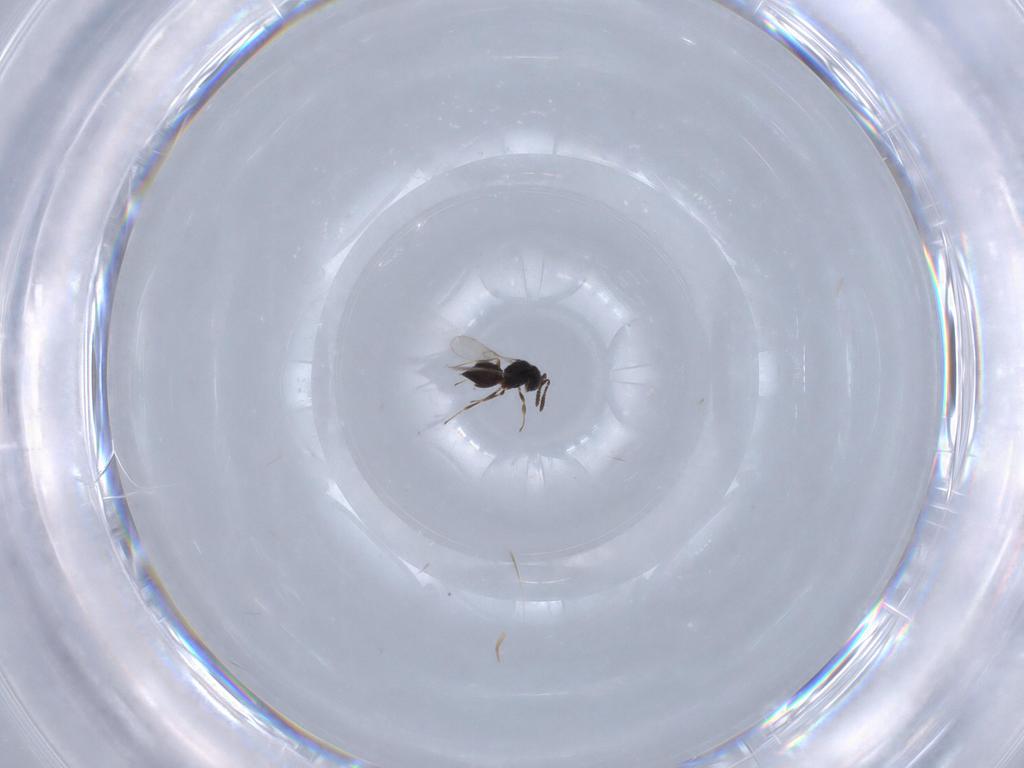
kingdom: Animalia
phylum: Arthropoda
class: Insecta
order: Hymenoptera
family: Scelionidae
